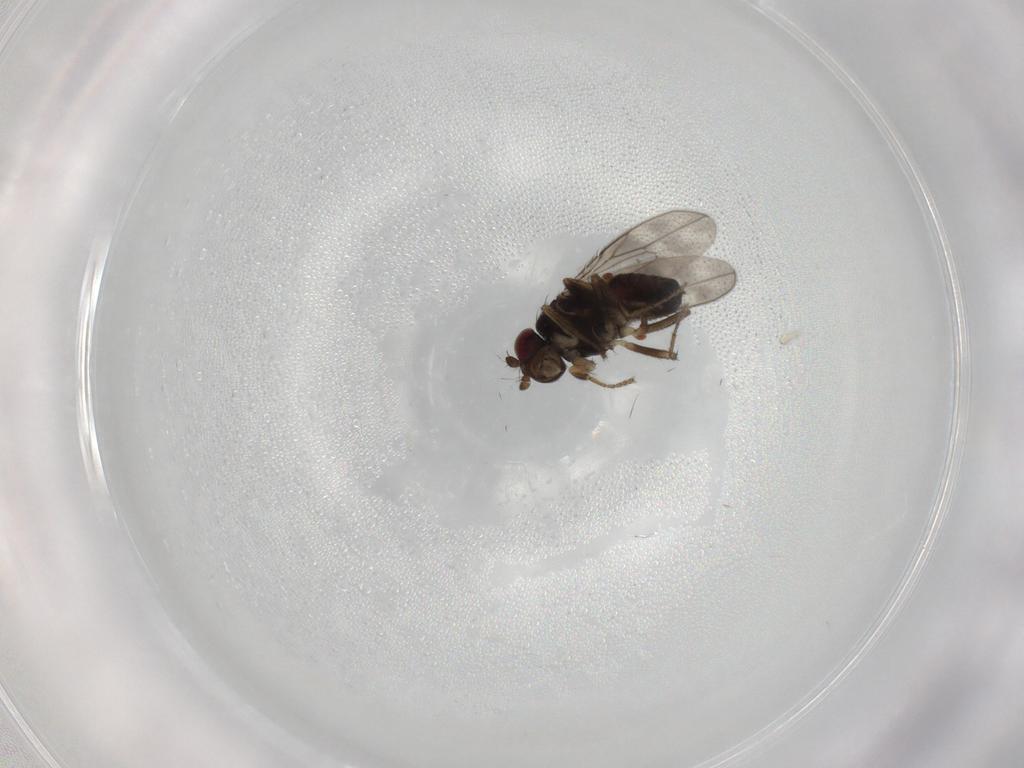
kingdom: Animalia
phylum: Arthropoda
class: Insecta
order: Diptera
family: Sphaeroceridae
